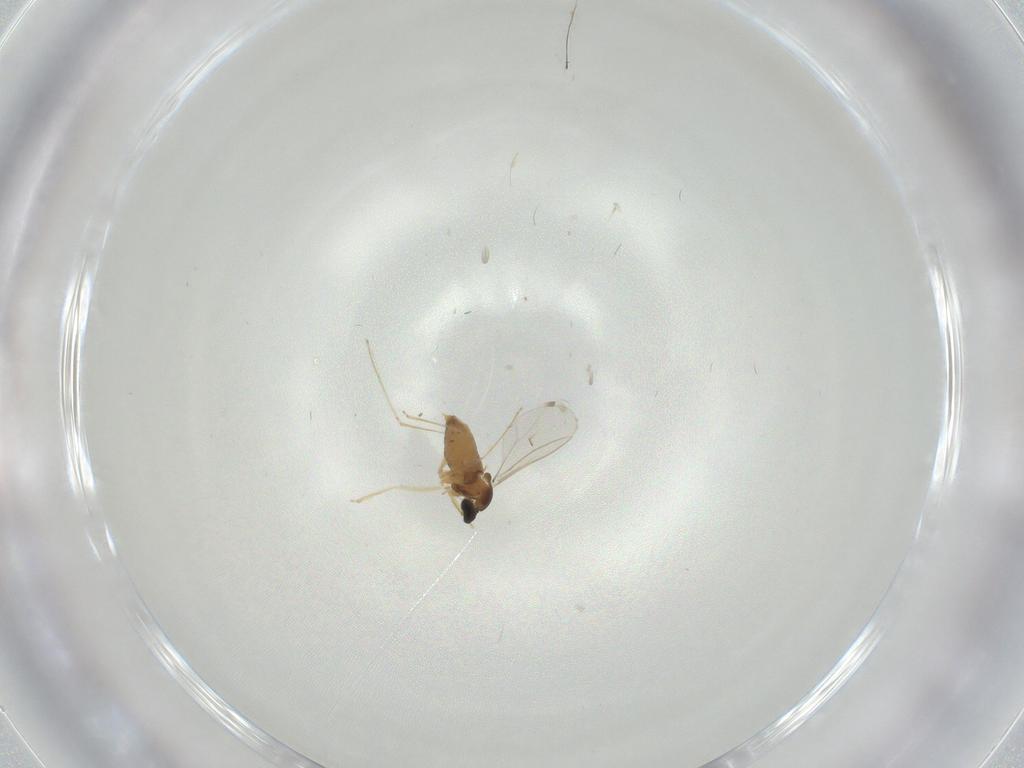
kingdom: Animalia
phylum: Arthropoda
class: Insecta
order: Diptera
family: Cecidomyiidae
